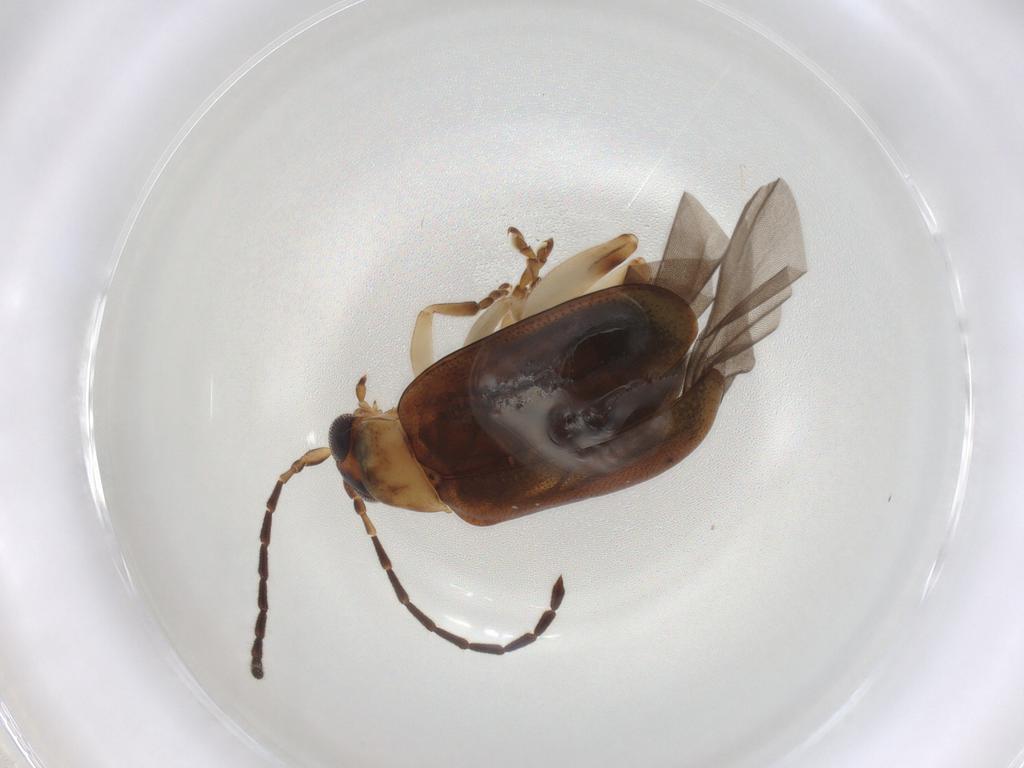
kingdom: Animalia
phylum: Arthropoda
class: Insecta
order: Coleoptera
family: Chrysomelidae
